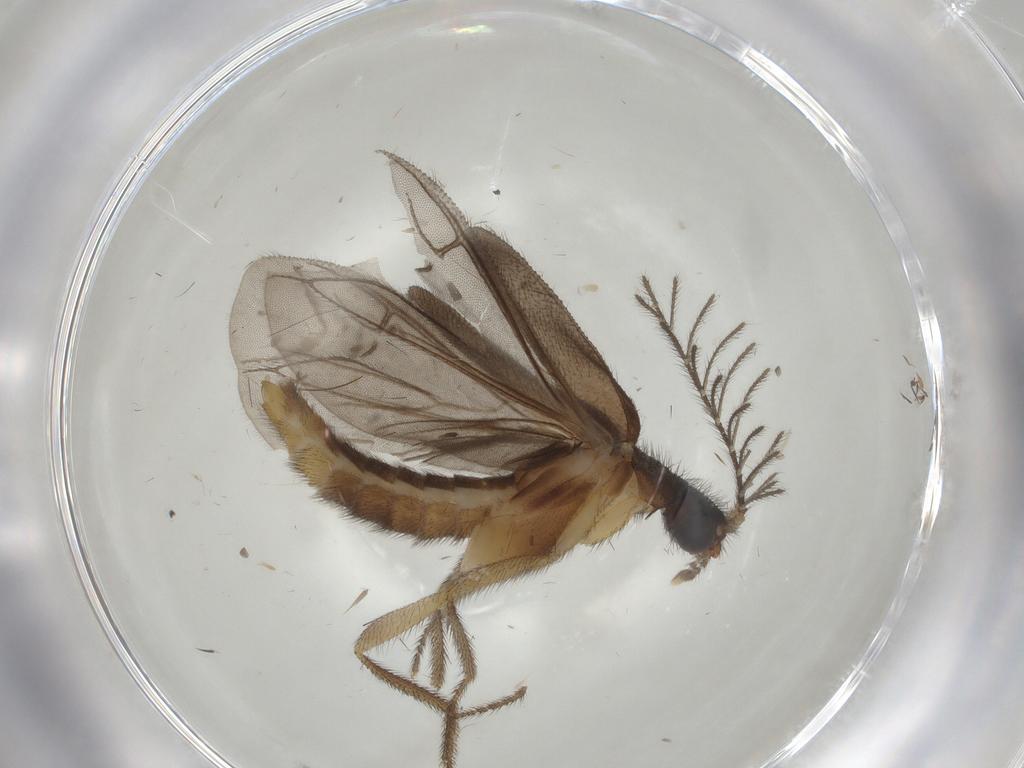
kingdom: Animalia
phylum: Arthropoda
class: Insecta
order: Coleoptera
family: Phengodidae
